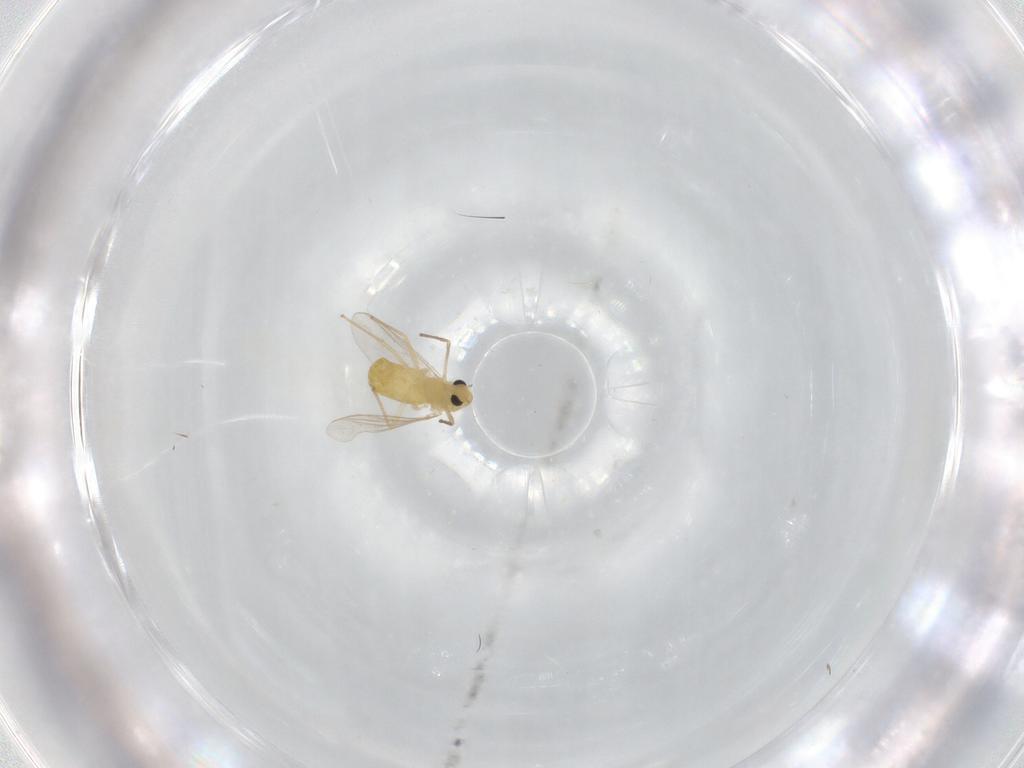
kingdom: Animalia
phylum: Arthropoda
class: Insecta
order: Diptera
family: Chironomidae
